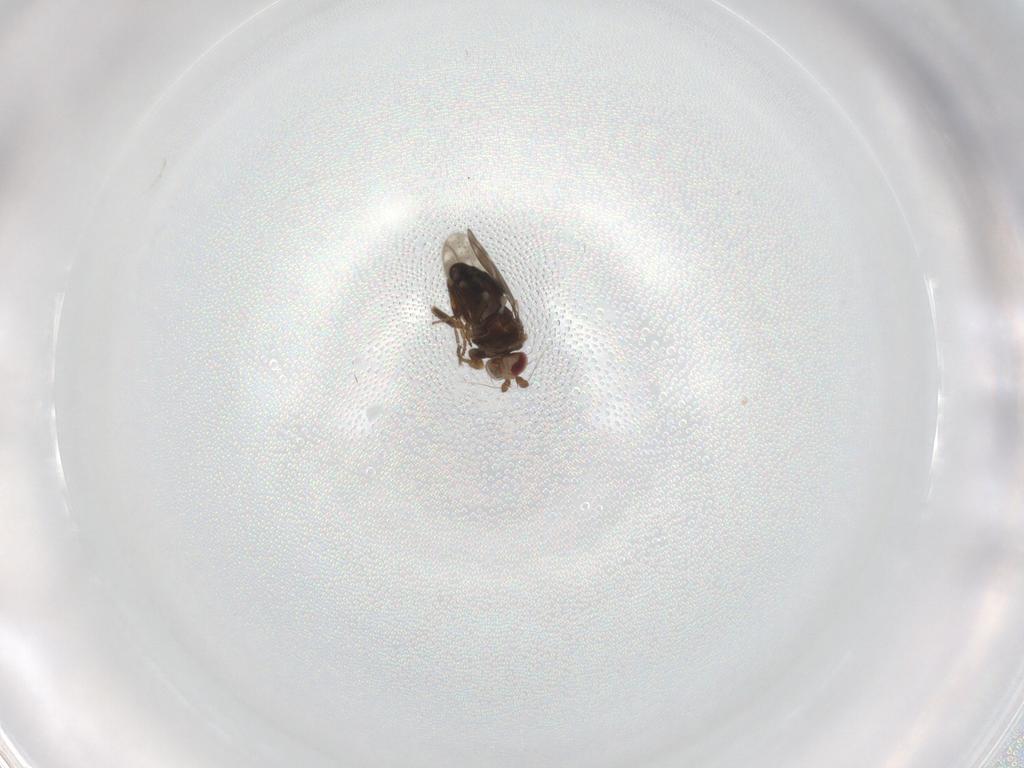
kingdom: Animalia
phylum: Arthropoda
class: Insecta
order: Diptera
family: Sphaeroceridae
